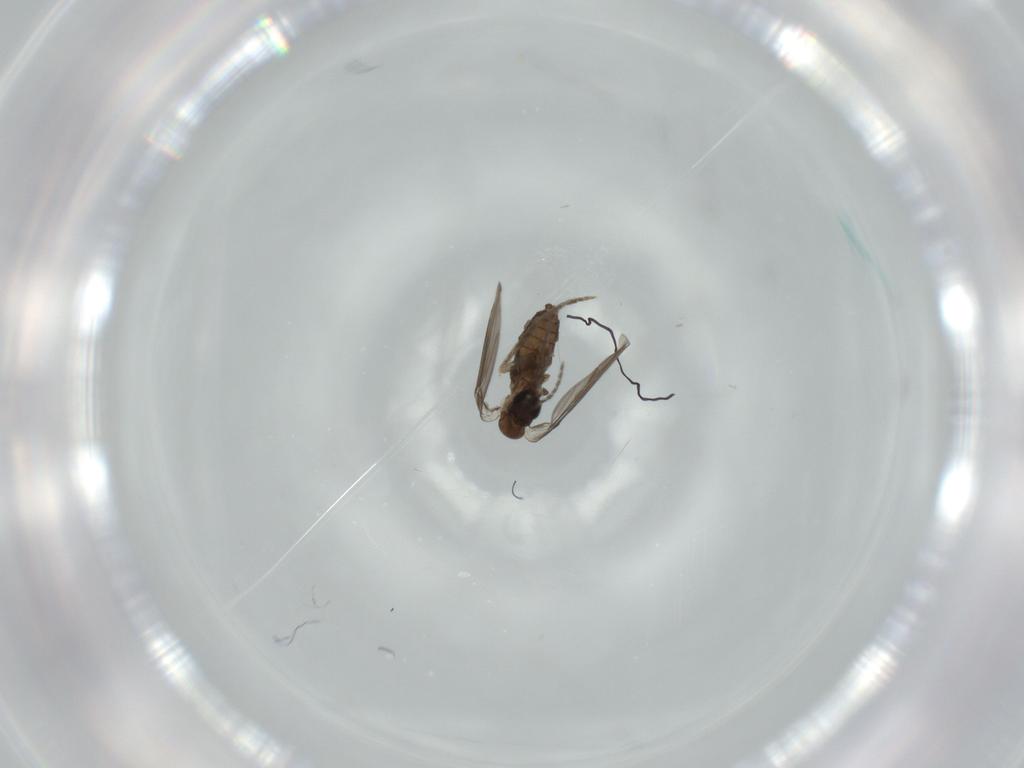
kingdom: Animalia
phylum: Arthropoda
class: Insecta
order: Diptera
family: Psychodidae
